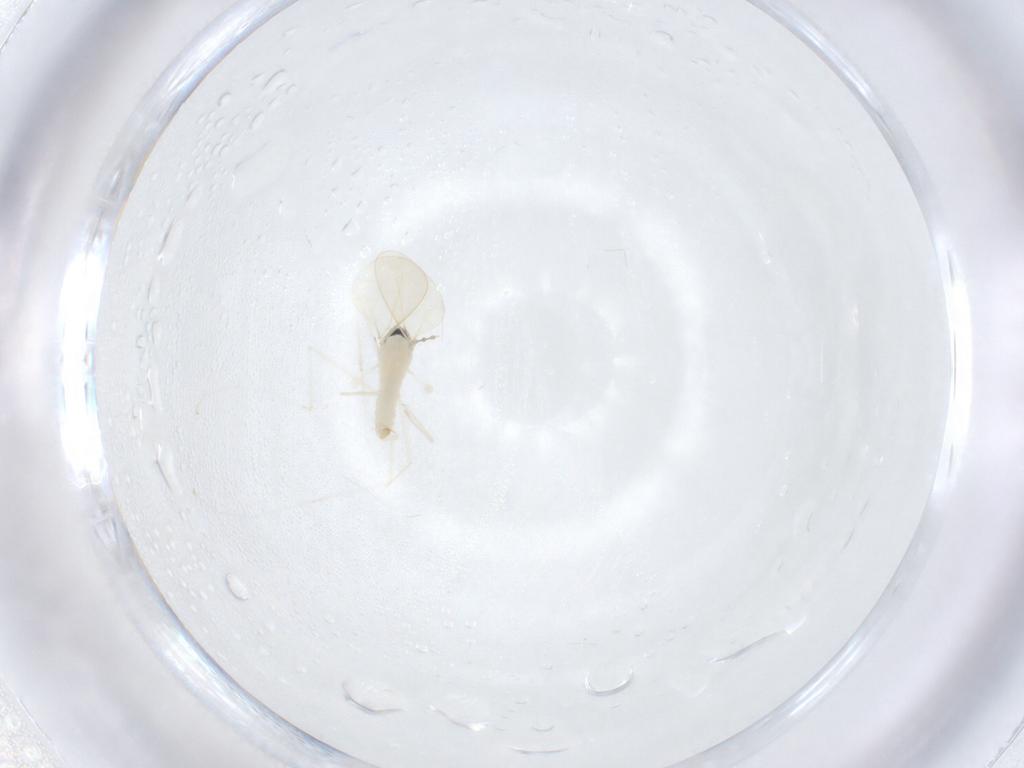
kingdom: Animalia
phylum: Arthropoda
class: Insecta
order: Diptera
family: Cecidomyiidae
